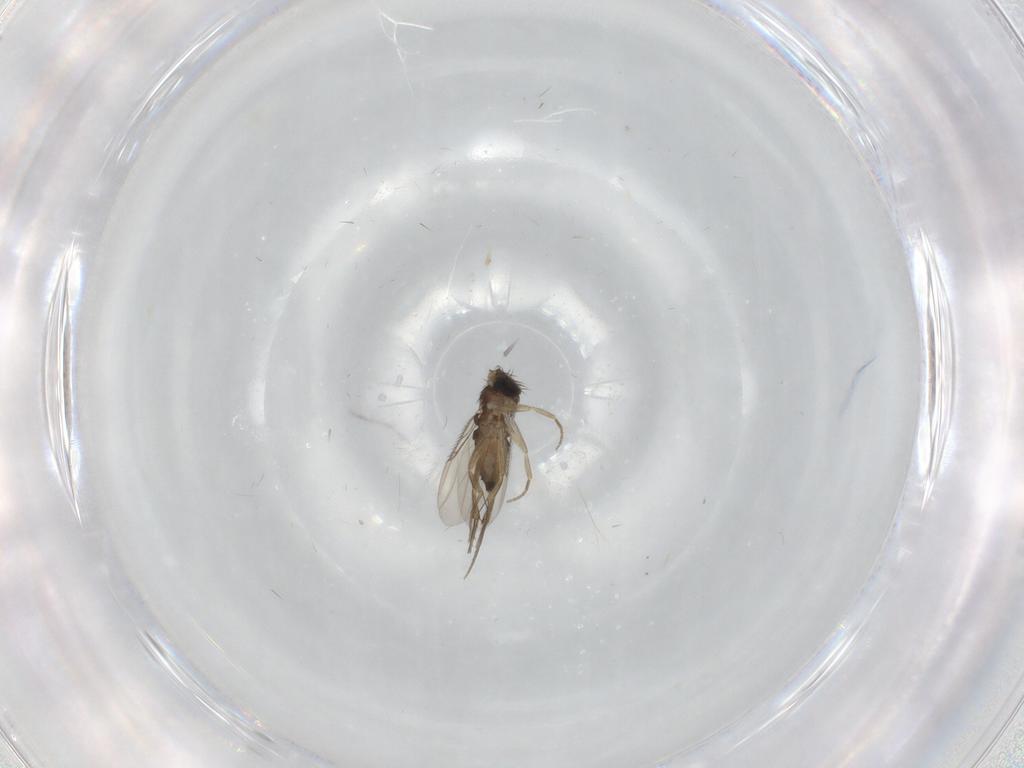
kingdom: Animalia
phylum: Arthropoda
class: Insecta
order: Diptera
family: Phoridae
